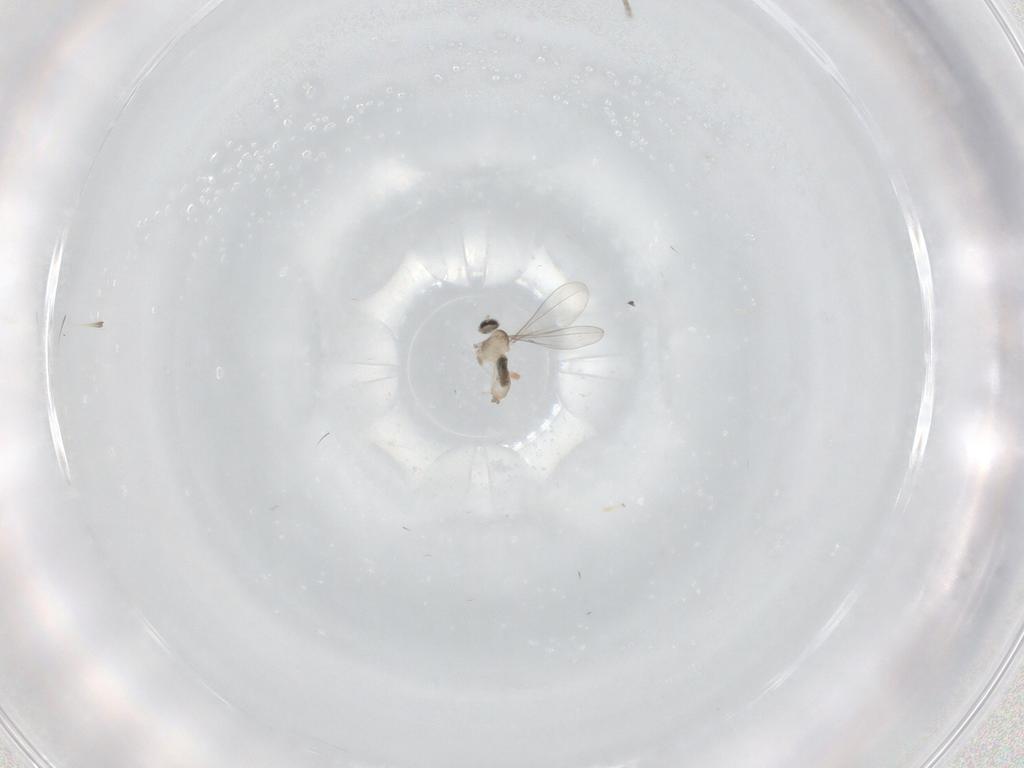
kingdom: Animalia
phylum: Arthropoda
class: Insecta
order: Diptera
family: Cecidomyiidae
